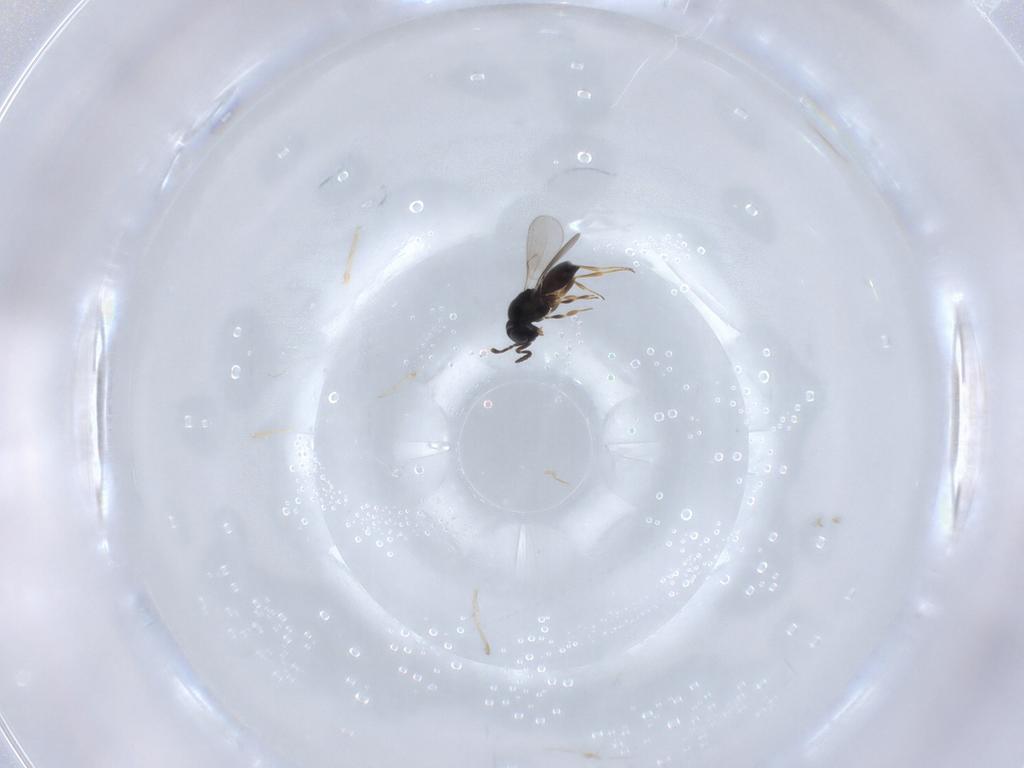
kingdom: Animalia
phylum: Arthropoda
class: Insecta
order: Hymenoptera
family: Scelionidae
